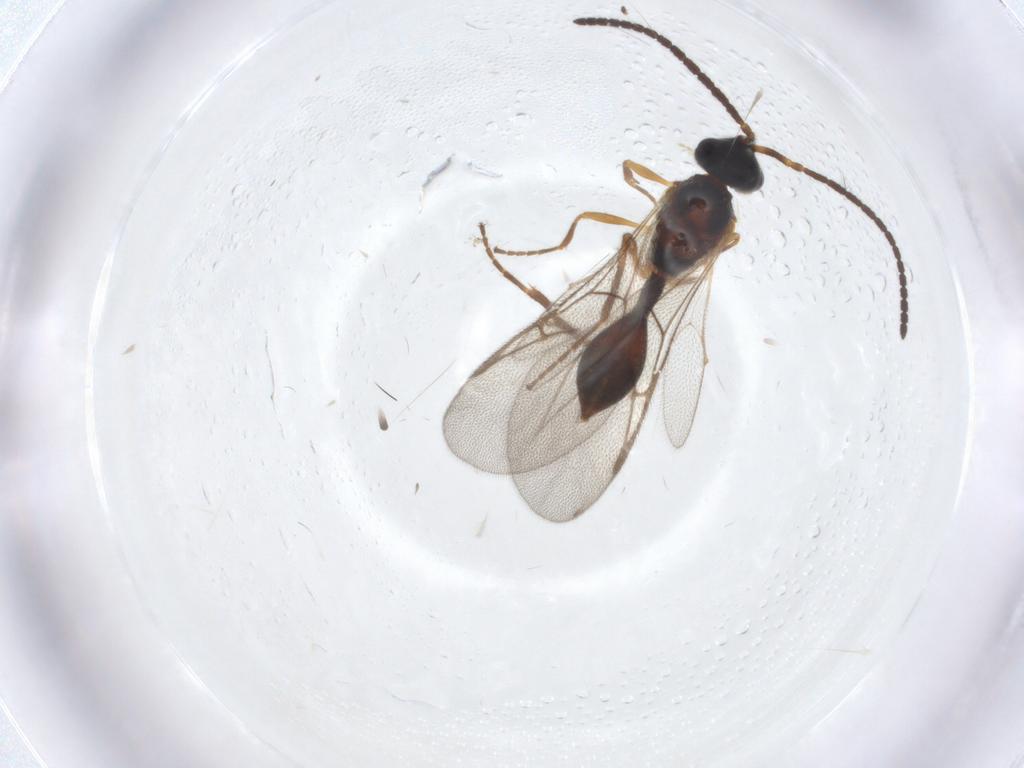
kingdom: Animalia
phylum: Arthropoda
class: Insecta
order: Hymenoptera
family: Diapriidae
